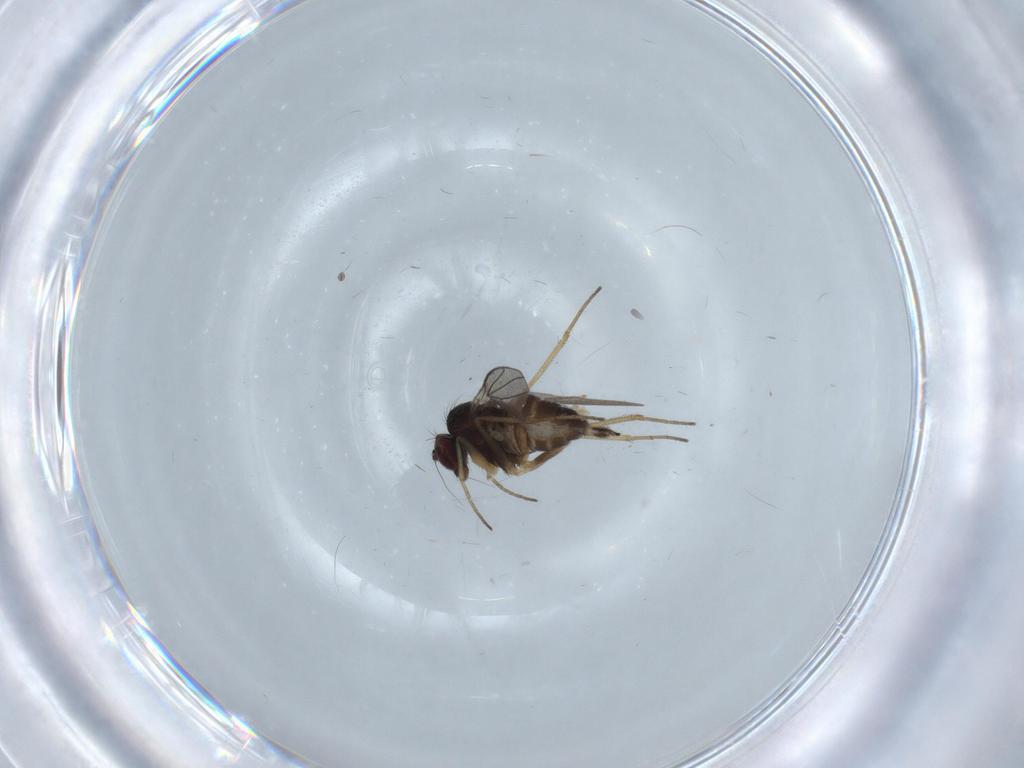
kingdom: Animalia
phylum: Arthropoda
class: Insecta
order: Diptera
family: Dolichopodidae
